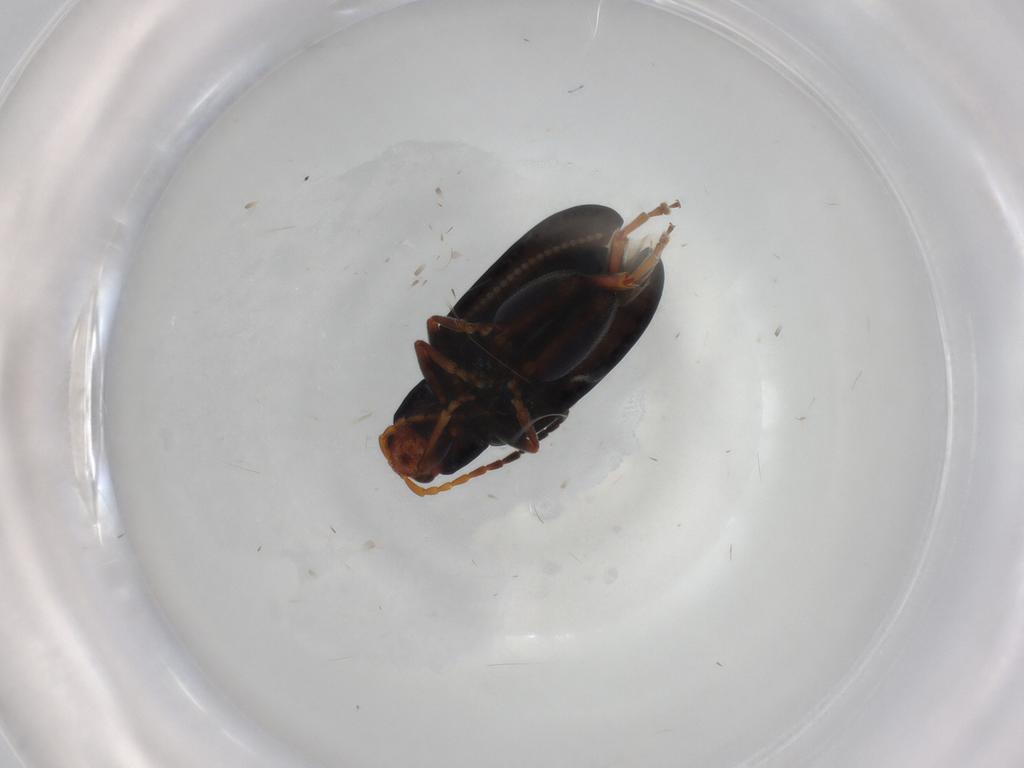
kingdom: Animalia
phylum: Arthropoda
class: Insecta
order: Coleoptera
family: Chrysomelidae
